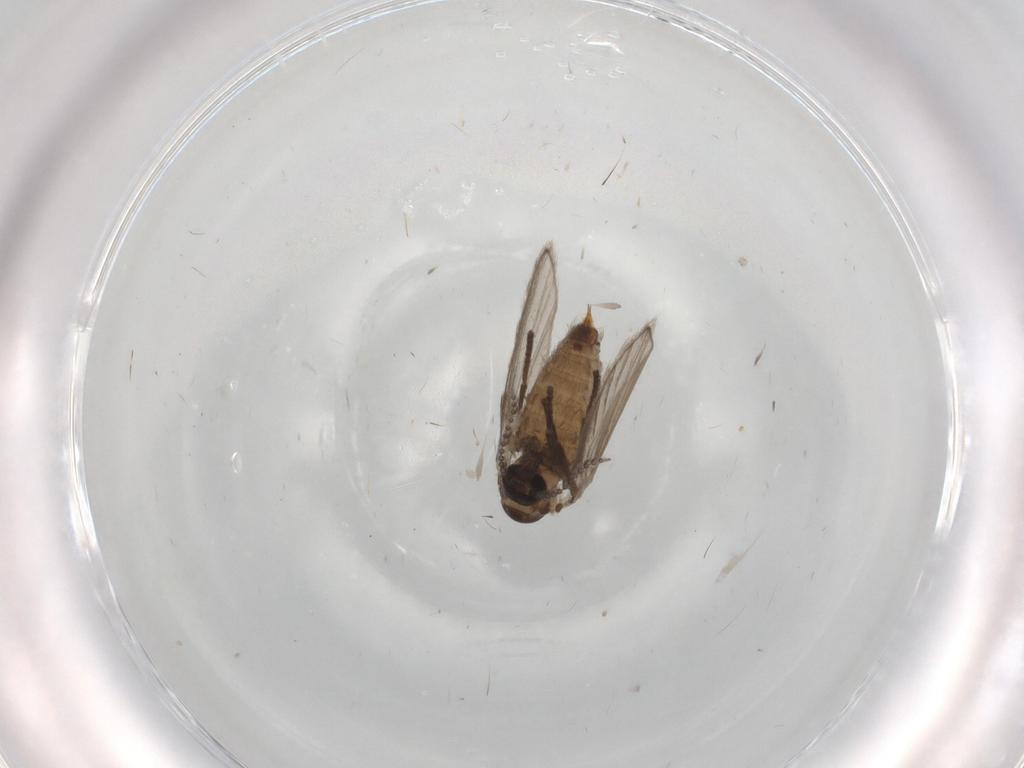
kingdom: Animalia
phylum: Arthropoda
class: Insecta
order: Diptera
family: Psychodidae
